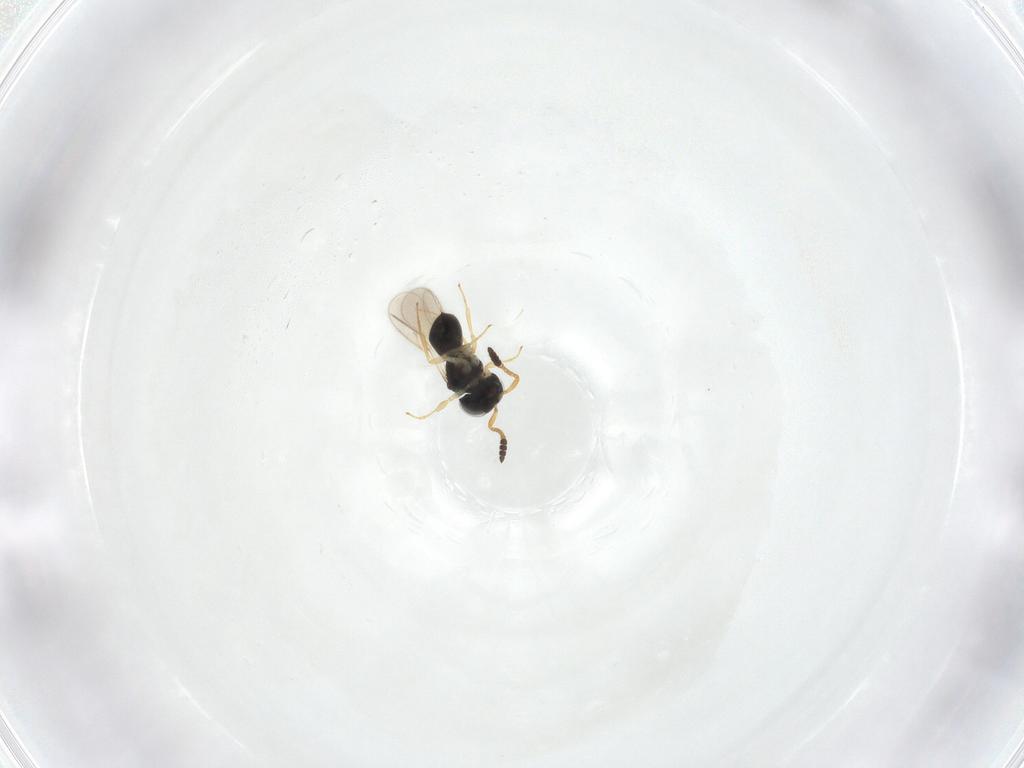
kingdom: Animalia
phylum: Arthropoda
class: Insecta
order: Hymenoptera
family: Scelionidae
